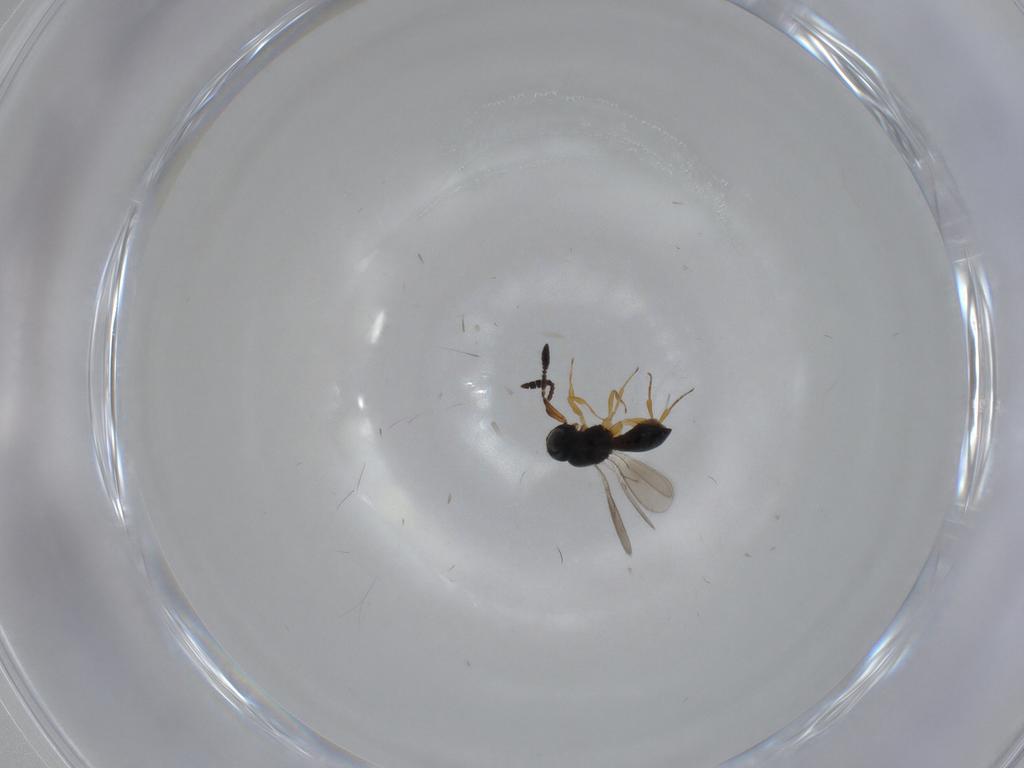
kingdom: Animalia
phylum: Arthropoda
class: Insecta
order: Hymenoptera
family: Scelionidae
